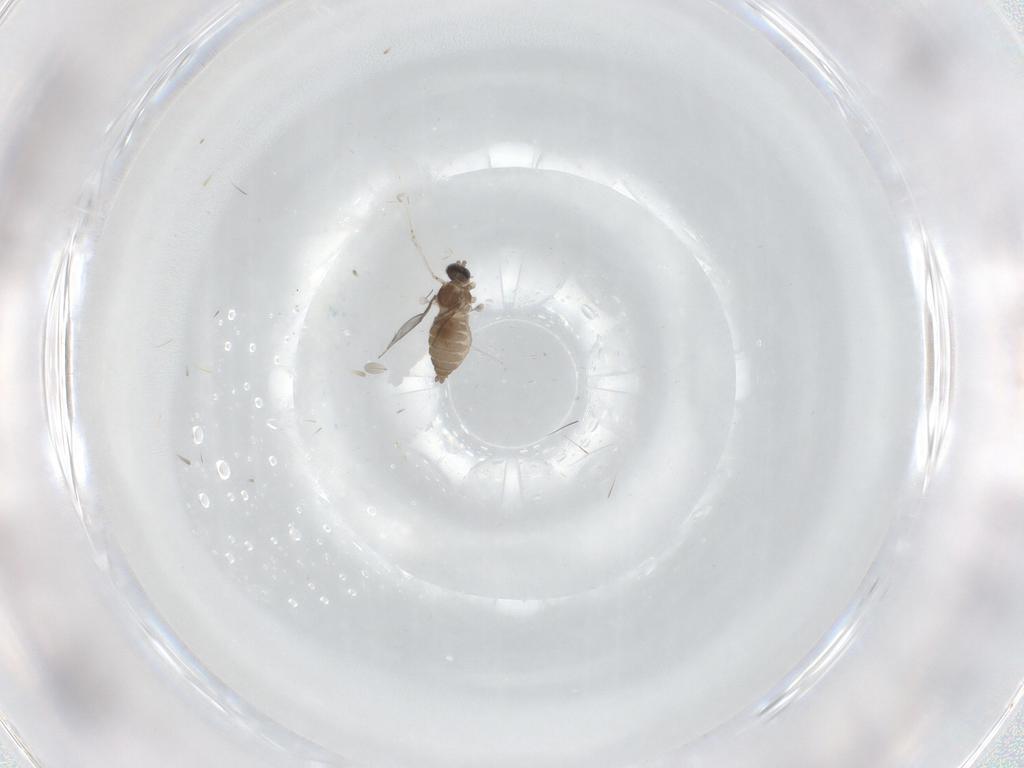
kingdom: Animalia
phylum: Arthropoda
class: Insecta
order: Diptera
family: Cecidomyiidae
